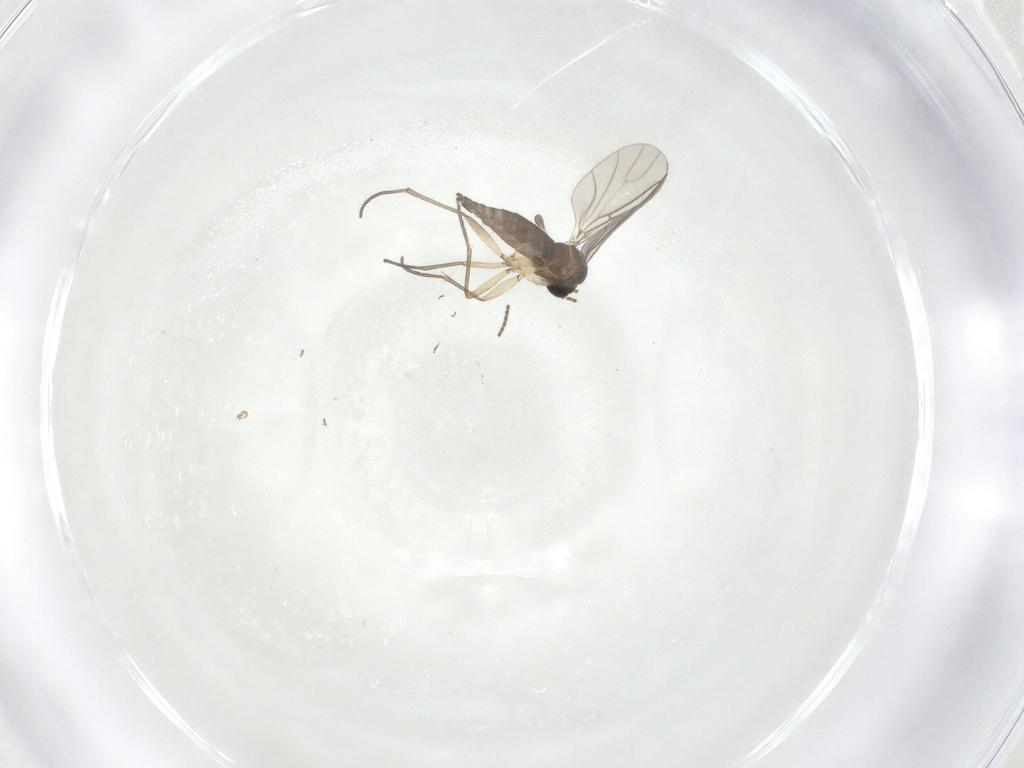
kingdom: Animalia
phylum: Arthropoda
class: Insecta
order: Diptera
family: Sciaridae
